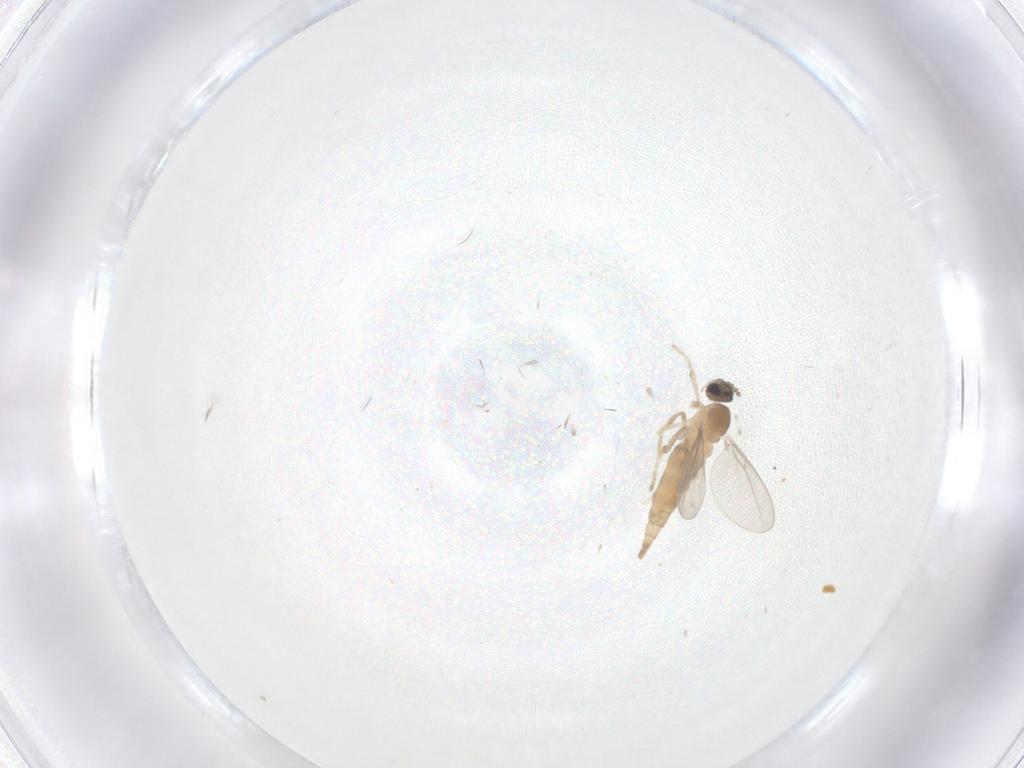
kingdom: Animalia
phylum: Arthropoda
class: Insecta
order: Diptera
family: Cecidomyiidae
